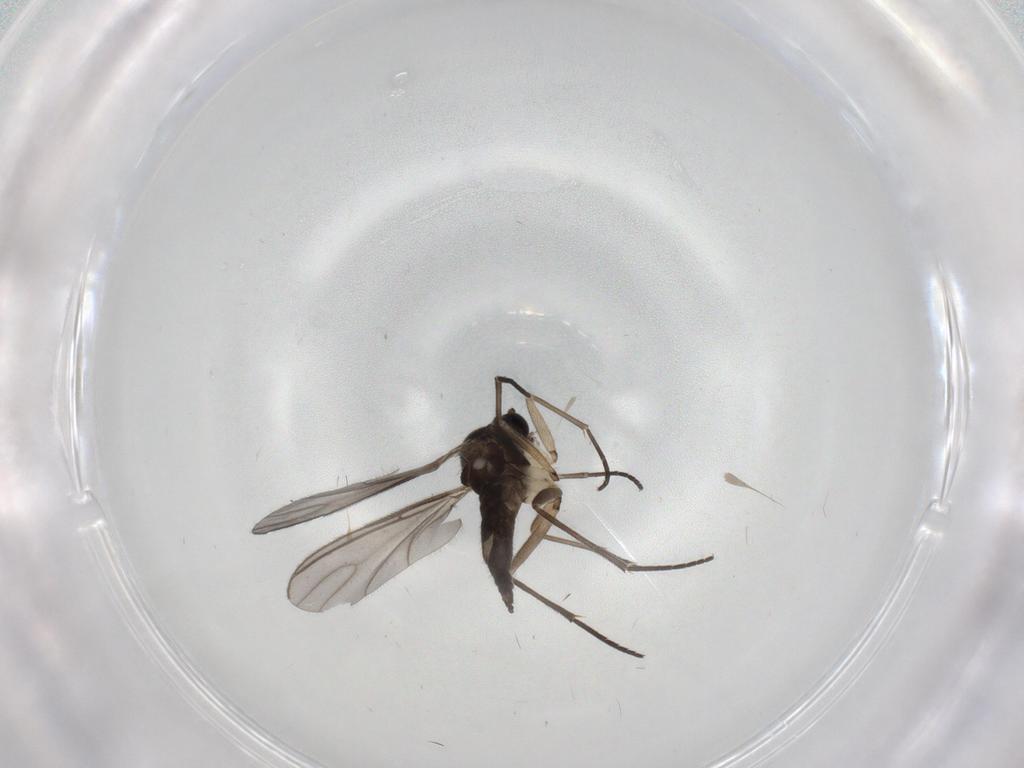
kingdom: Animalia
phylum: Arthropoda
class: Insecta
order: Diptera
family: Sciaridae
